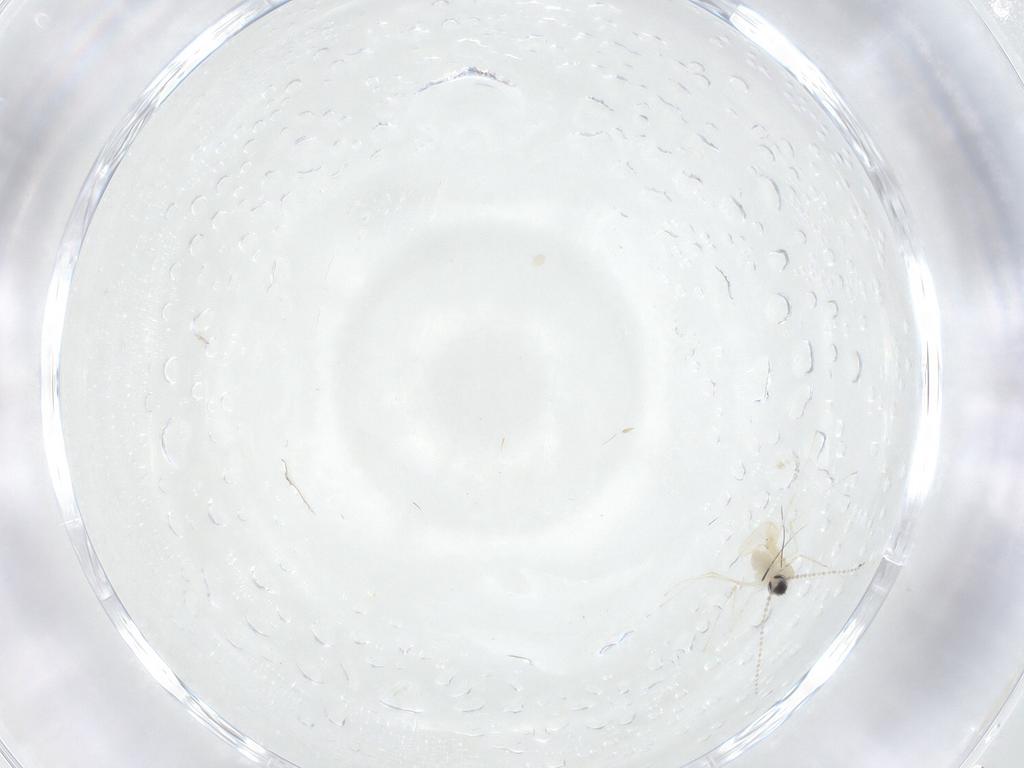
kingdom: Animalia
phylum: Arthropoda
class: Insecta
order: Diptera
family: Cecidomyiidae
